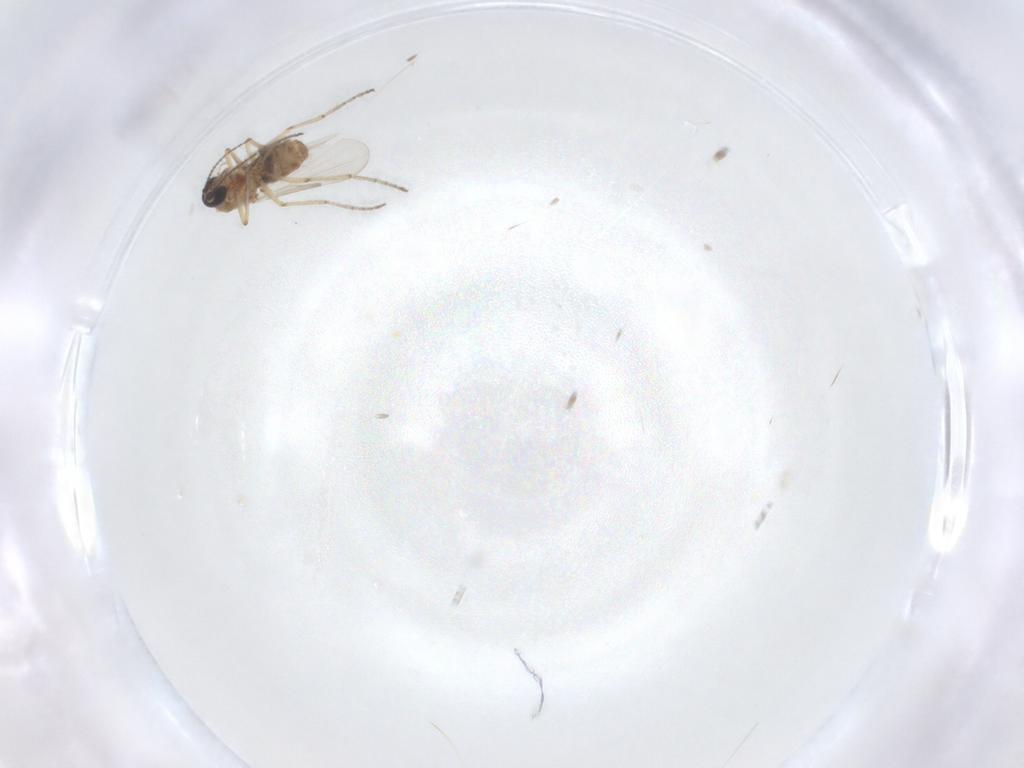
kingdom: Animalia
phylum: Arthropoda
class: Insecta
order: Diptera
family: Ceratopogonidae
